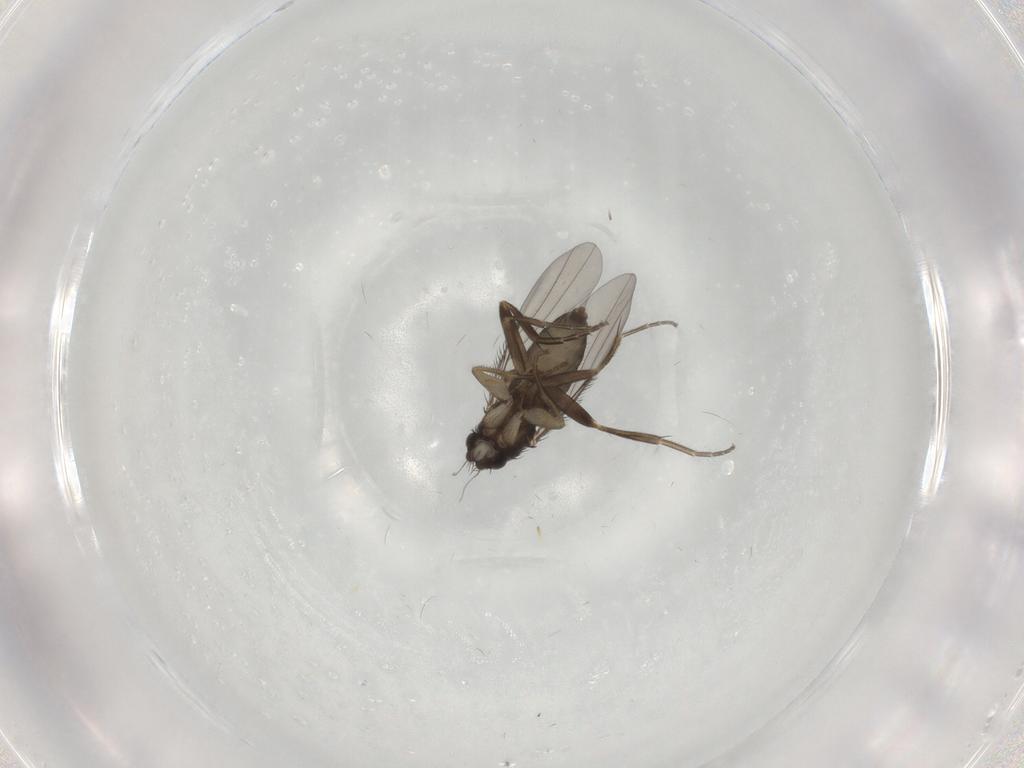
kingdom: Animalia
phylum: Arthropoda
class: Insecta
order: Diptera
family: Phoridae
